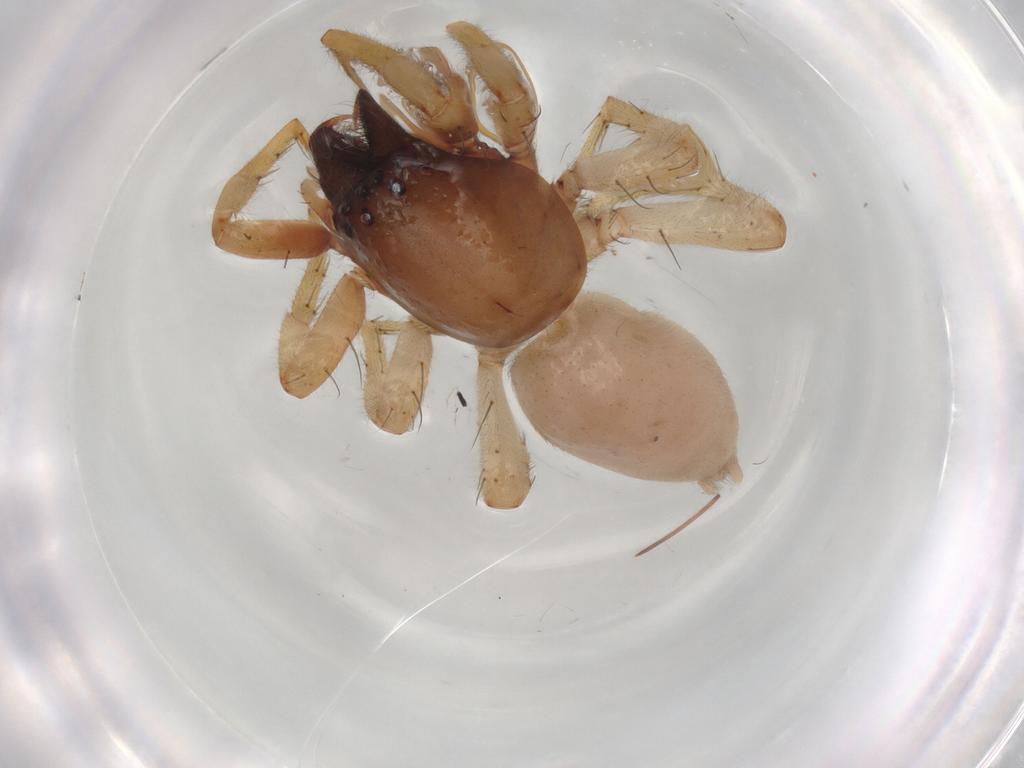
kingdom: Animalia
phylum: Arthropoda
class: Arachnida
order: Araneae
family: Clubionidae
